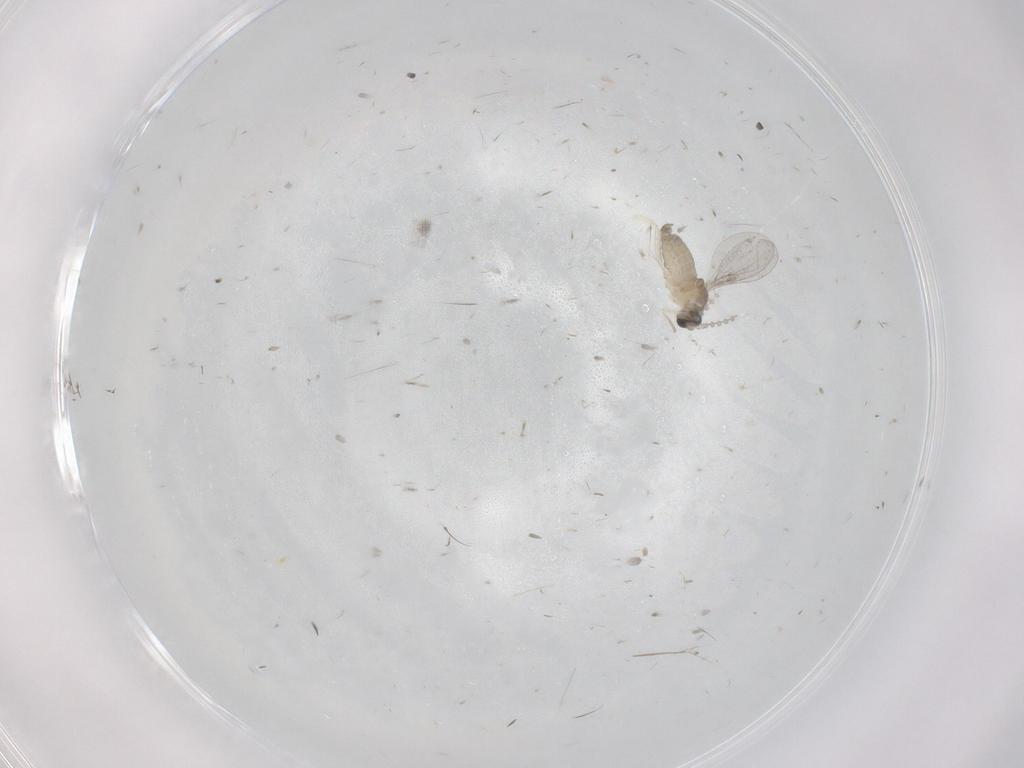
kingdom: Animalia
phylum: Arthropoda
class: Insecta
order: Diptera
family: Cecidomyiidae
